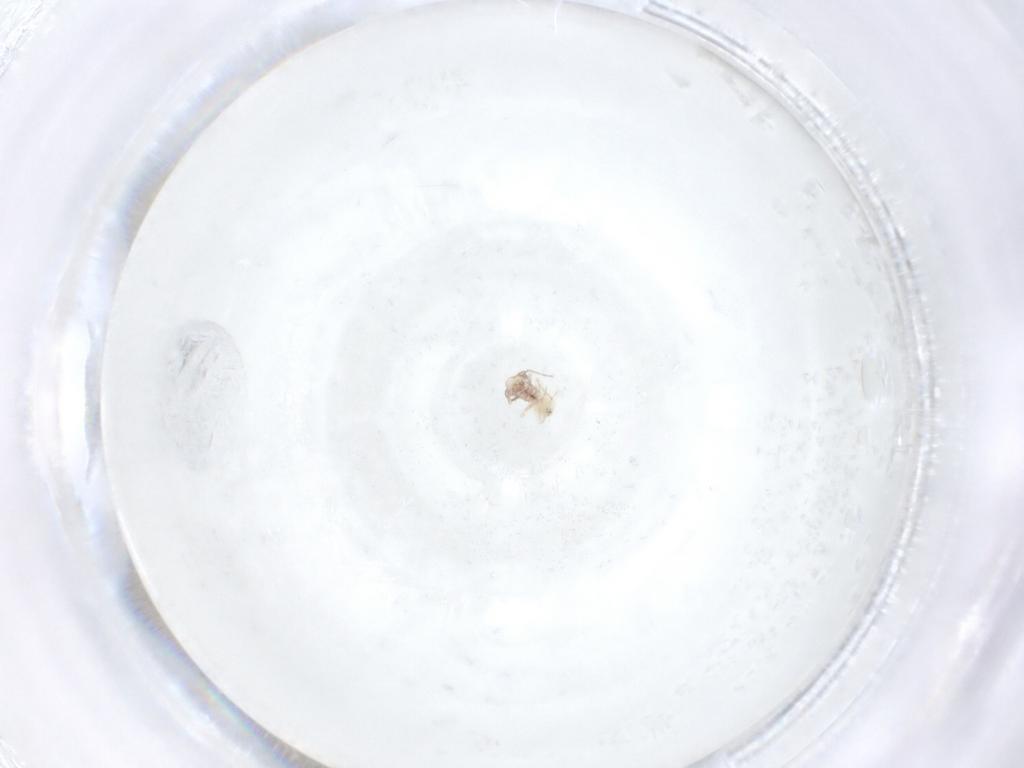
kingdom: Animalia
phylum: Arthropoda
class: Insecta
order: Psocodea
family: Lepidopsocidae
